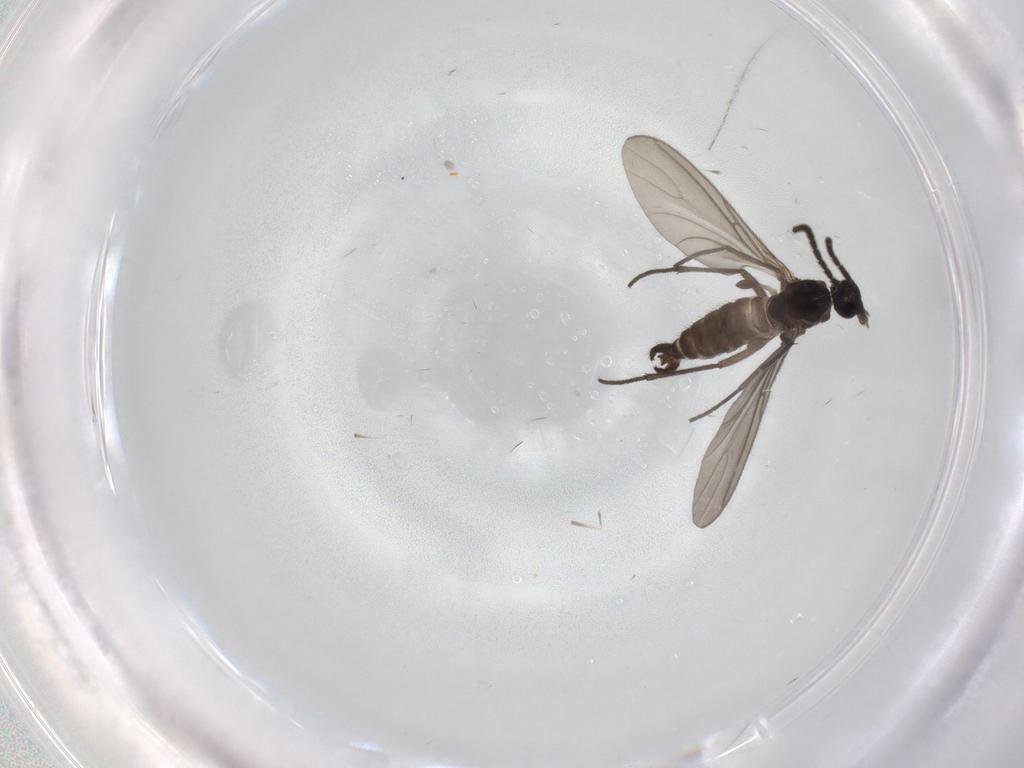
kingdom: Animalia
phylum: Arthropoda
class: Insecta
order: Diptera
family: Sciaridae
